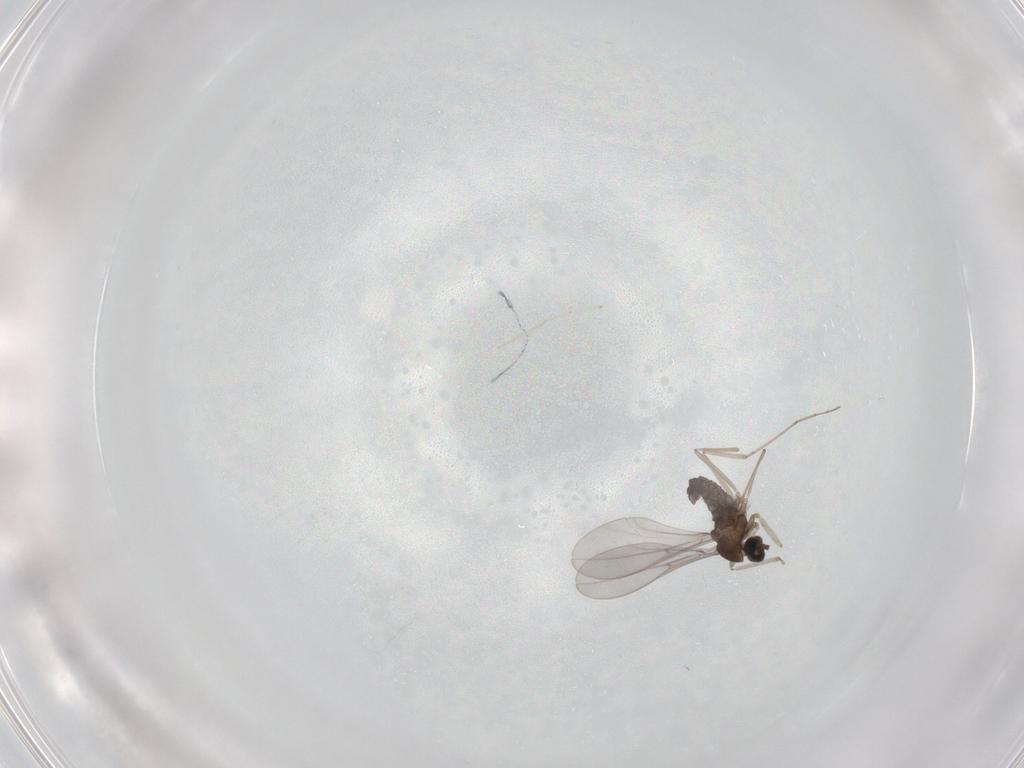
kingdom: Animalia
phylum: Arthropoda
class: Insecta
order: Diptera
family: Cecidomyiidae
